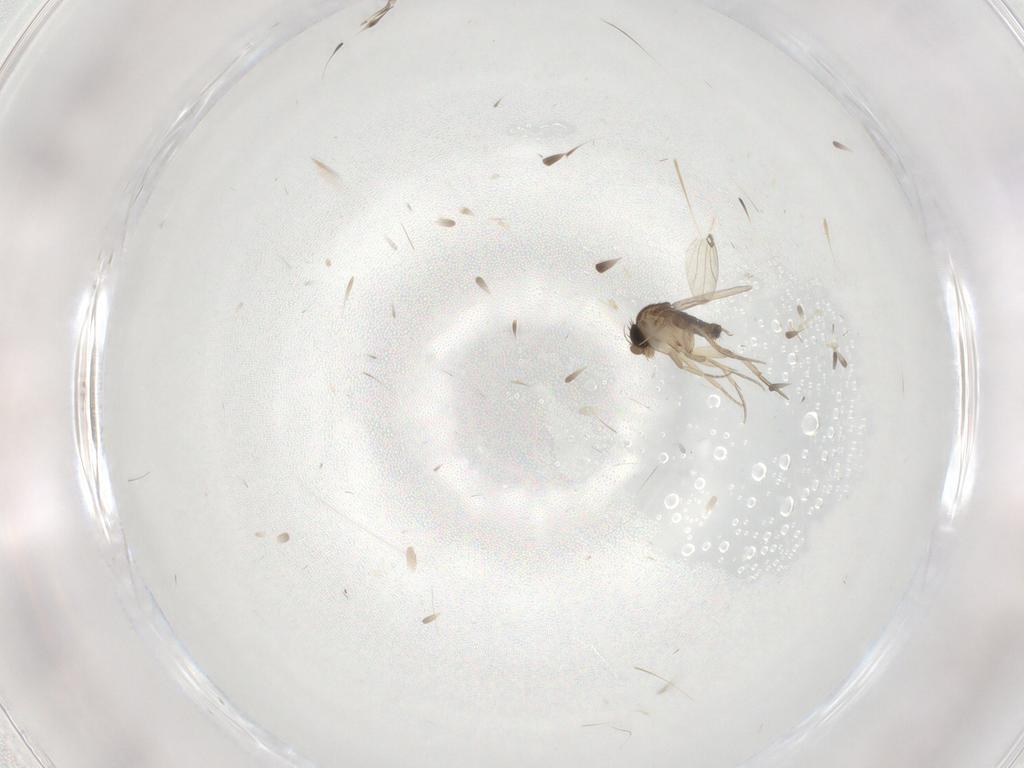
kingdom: Animalia
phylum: Arthropoda
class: Insecta
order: Diptera
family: Phoridae
